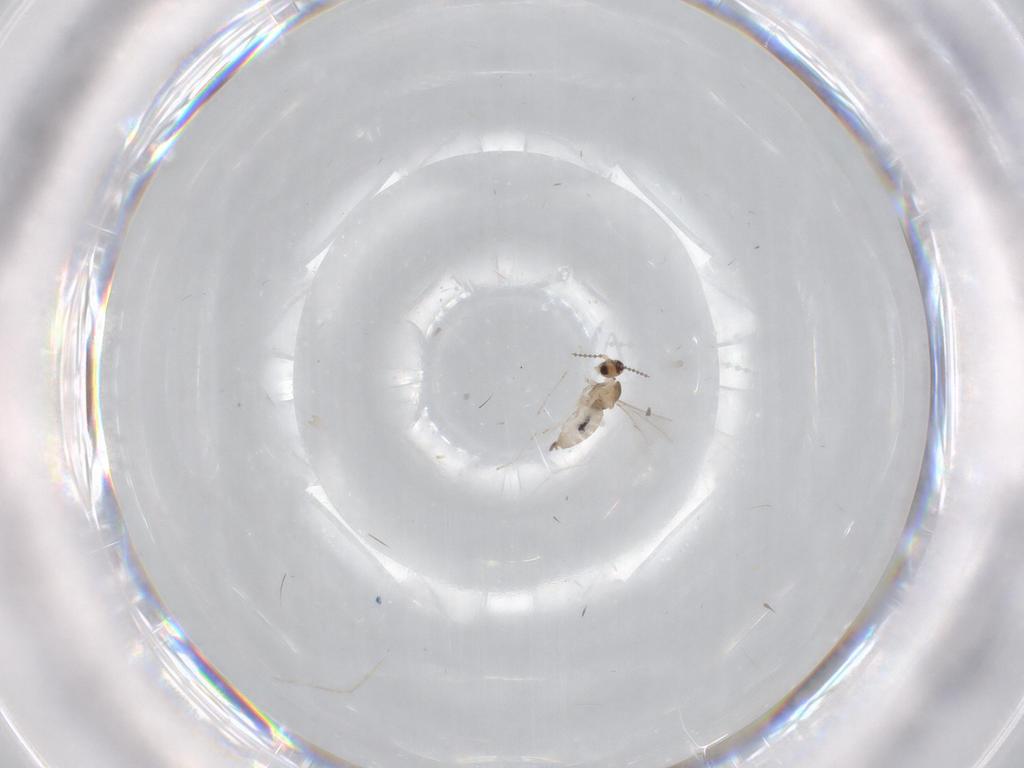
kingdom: Animalia
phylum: Arthropoda
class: Insecta
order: Diptera
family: Cecidomyiidae
